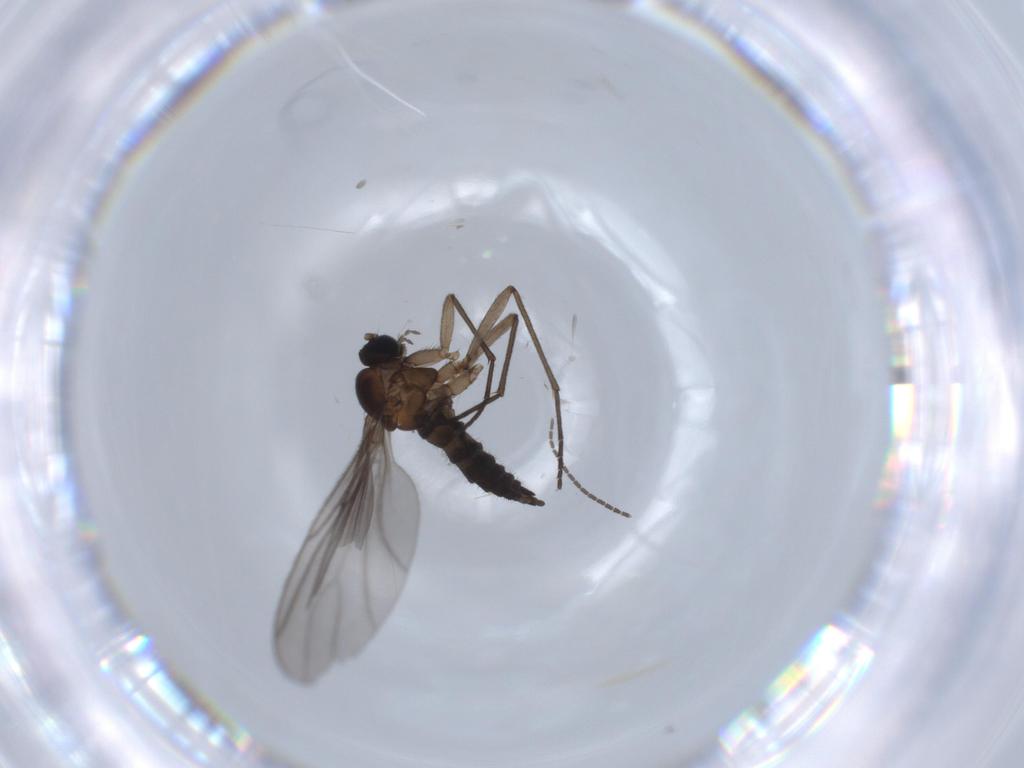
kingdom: Animalia
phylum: Arthropoda
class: Insecta
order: Diptera
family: Sciaridae
